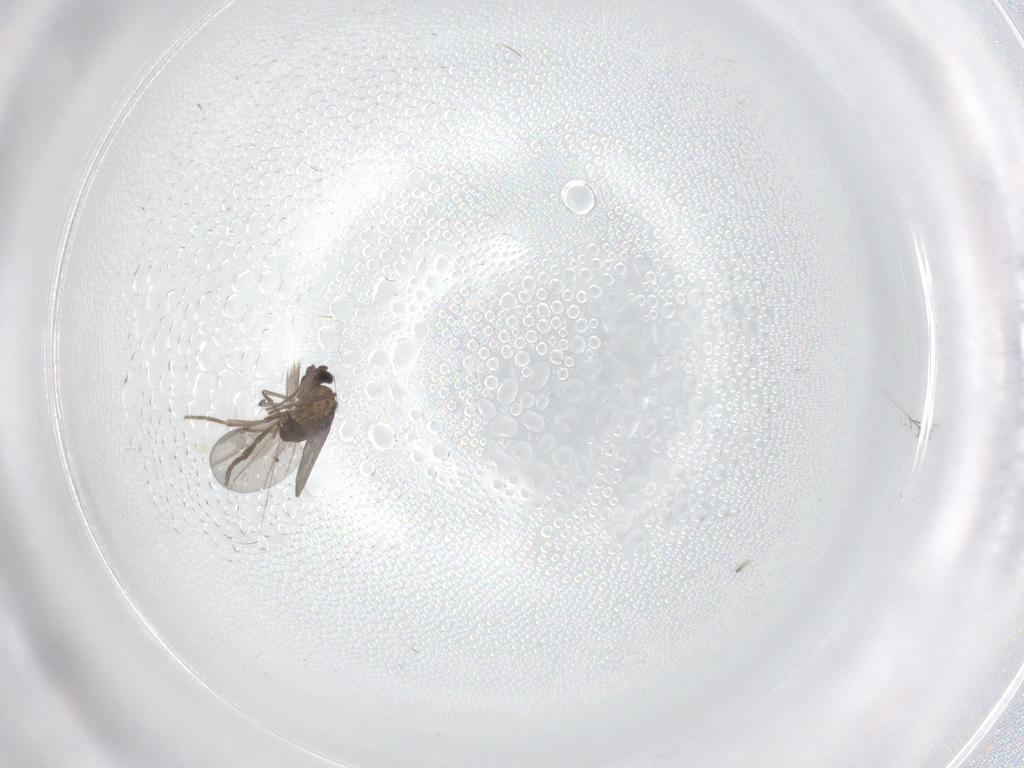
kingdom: Animalia
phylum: Arthropoda
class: Insecta
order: Diptera
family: Phoridae
